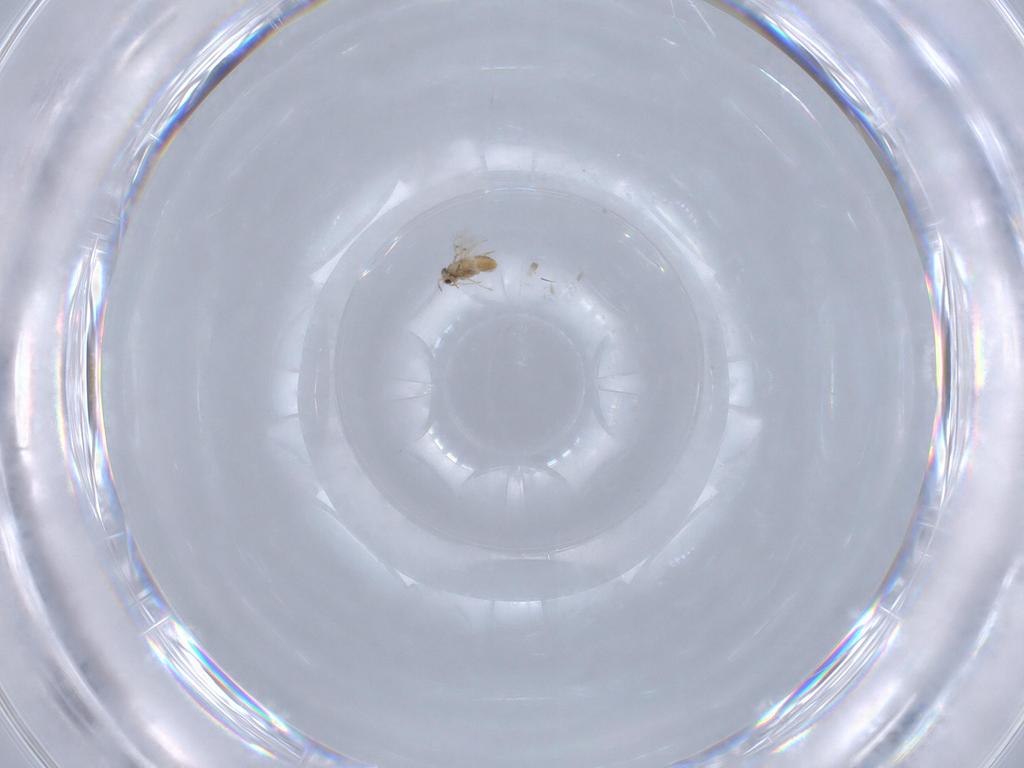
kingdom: Animalia
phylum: Arthropoda
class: Insecta
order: Hymenoptera
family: Trichogrammatidae
